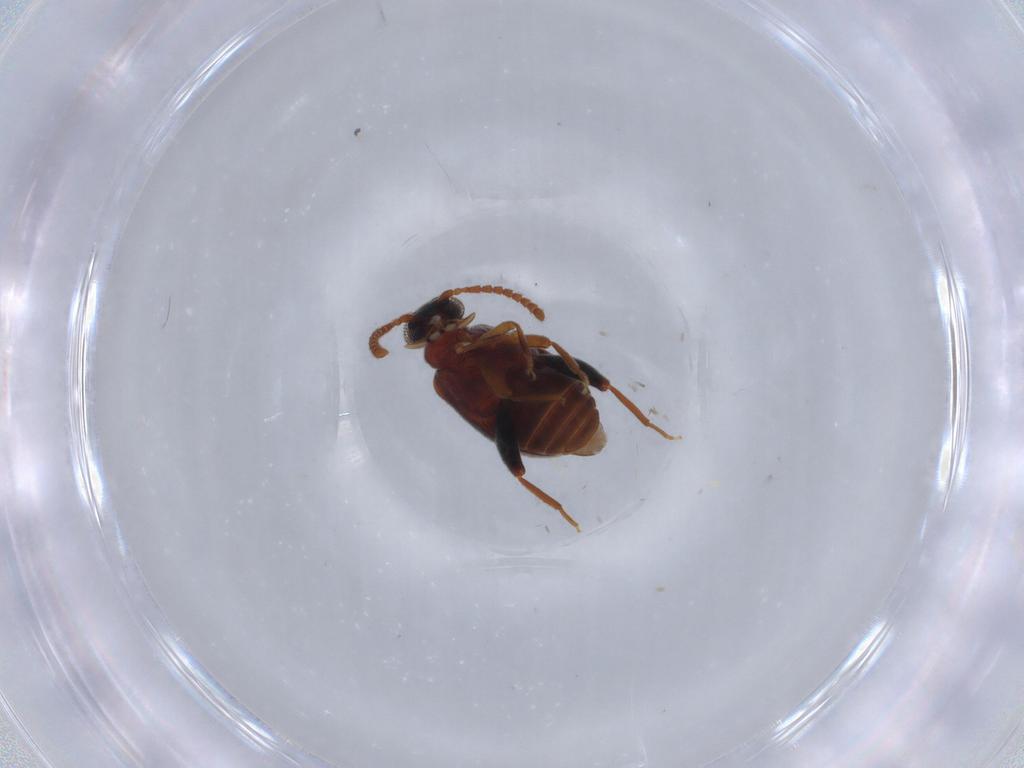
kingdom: Animalia
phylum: Arthropoda
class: Insecta
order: Coleoptera
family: Aderidae
